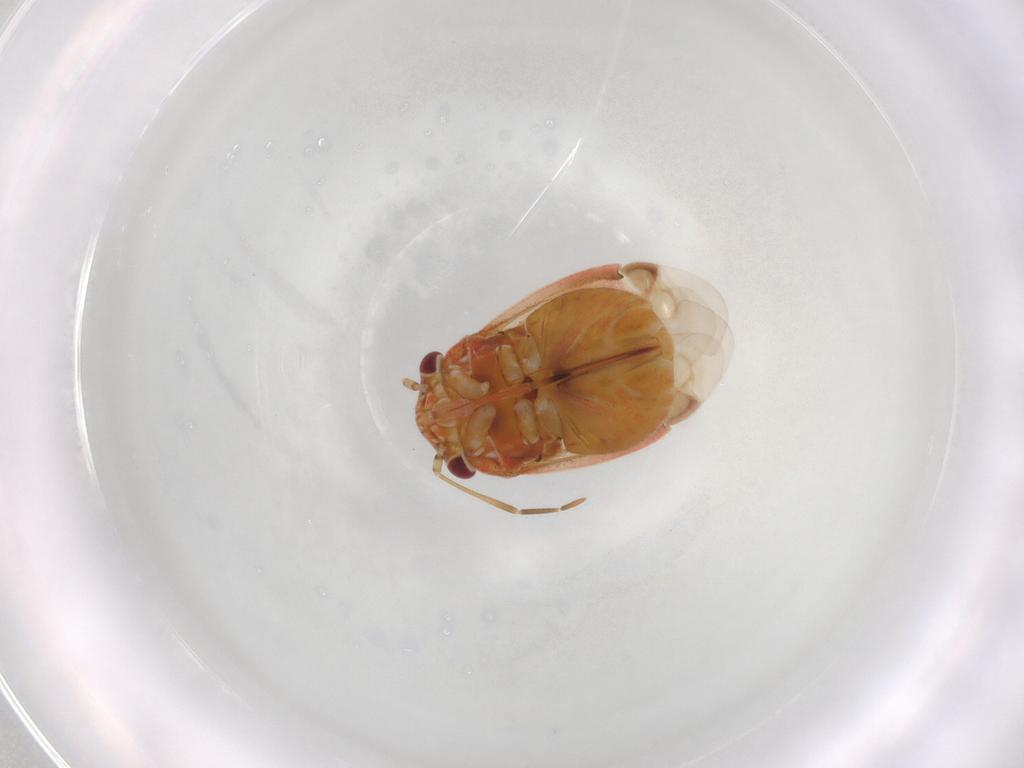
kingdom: Animalia
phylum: Arthropoda
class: Insecta
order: Hemiptera
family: Miridae
